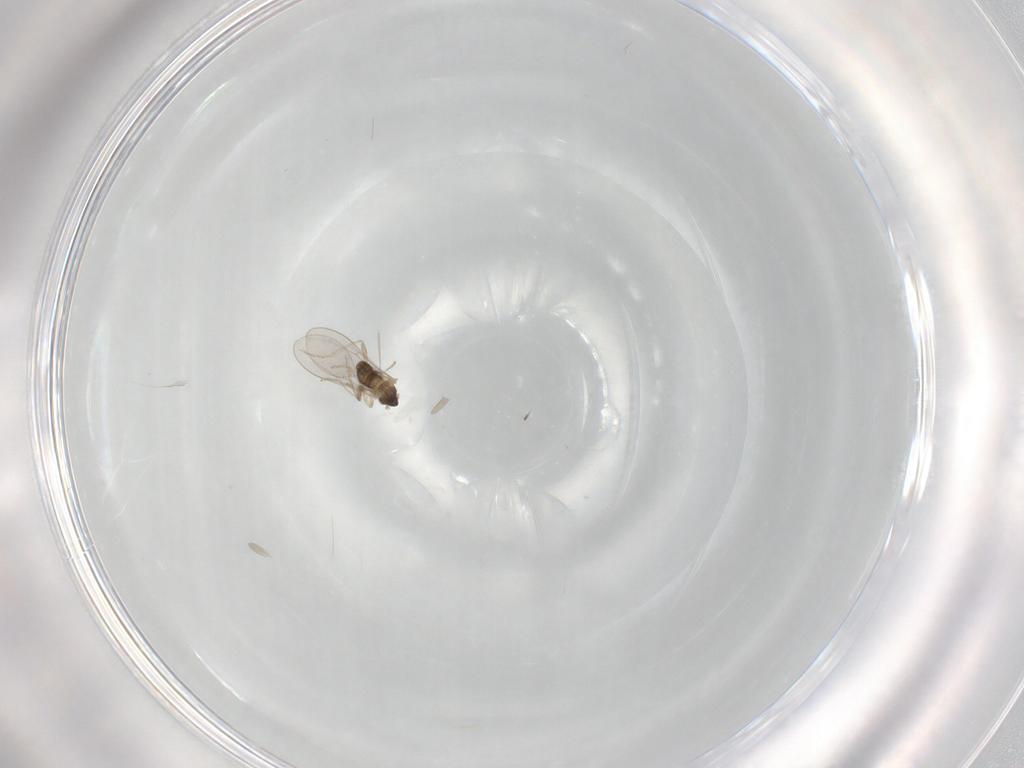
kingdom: Animalia
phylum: Arthropoda
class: Insecta
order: Diptera
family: Cecidomyiidae
